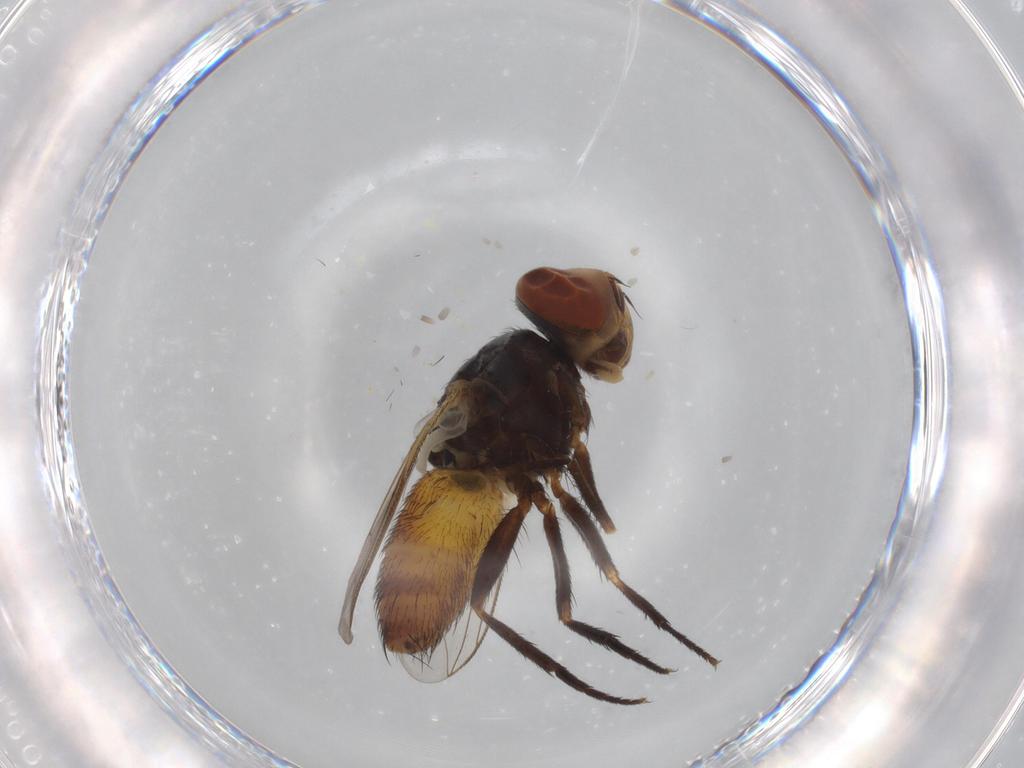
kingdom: Animalia
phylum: Arthropoda
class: Insecta
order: Diptera
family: Sarcophagidae
